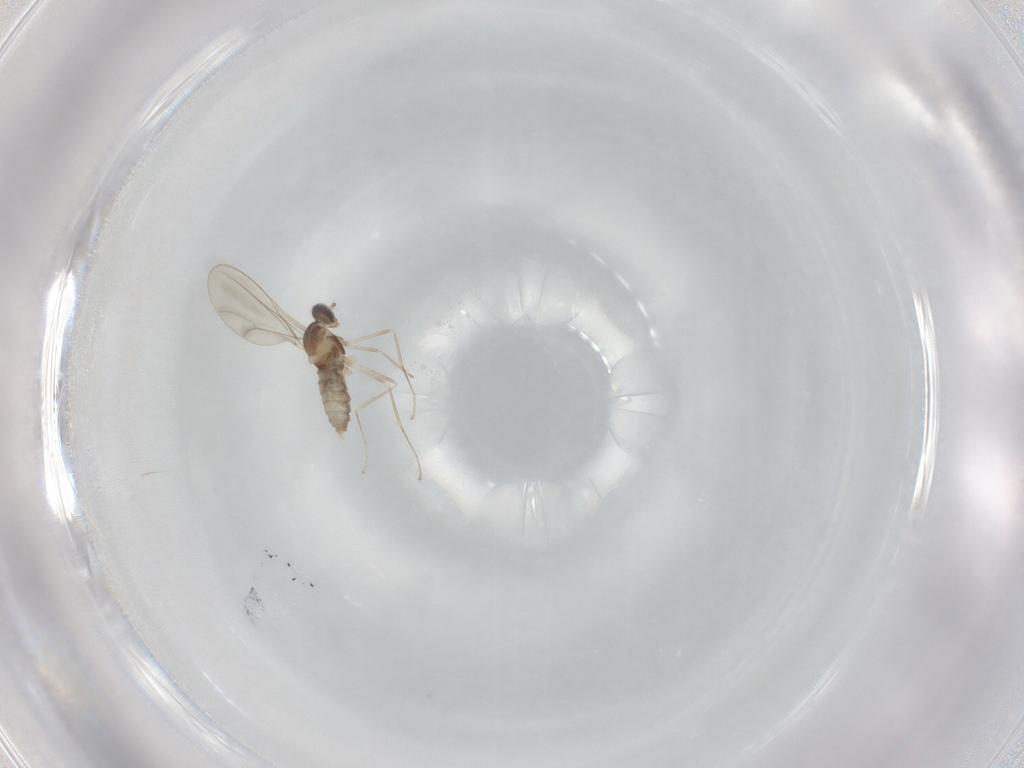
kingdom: Animalia
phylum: Arthropoda
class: Insecta
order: Diptera
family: Cecidomyiidae
